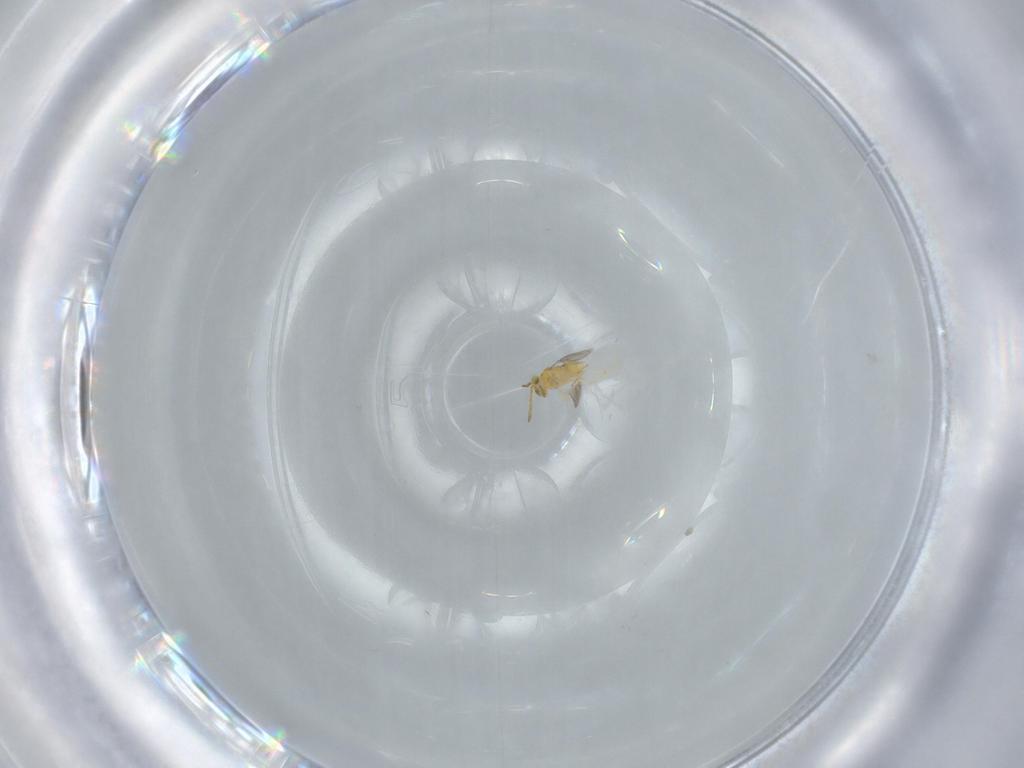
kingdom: Animalia
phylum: Arthropoda
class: Insecta
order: Hymenoptera
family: Aphelinidae
